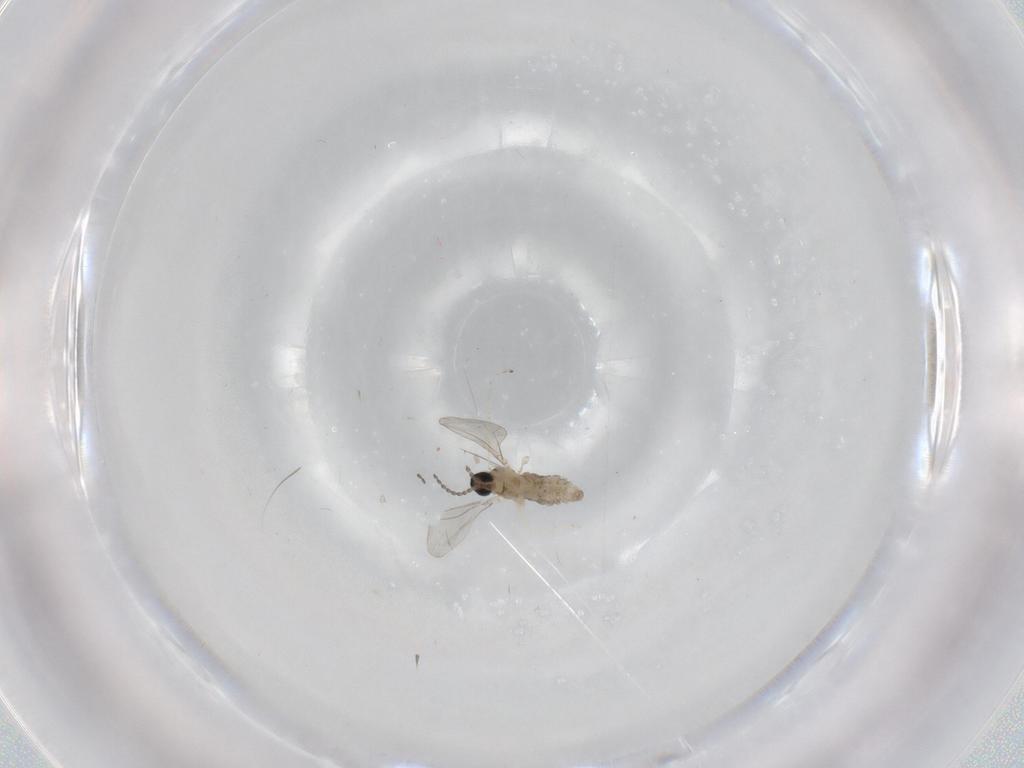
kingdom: Animalia
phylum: Arthropoda
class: Insecta
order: Diptera
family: Cecidomyiidae
